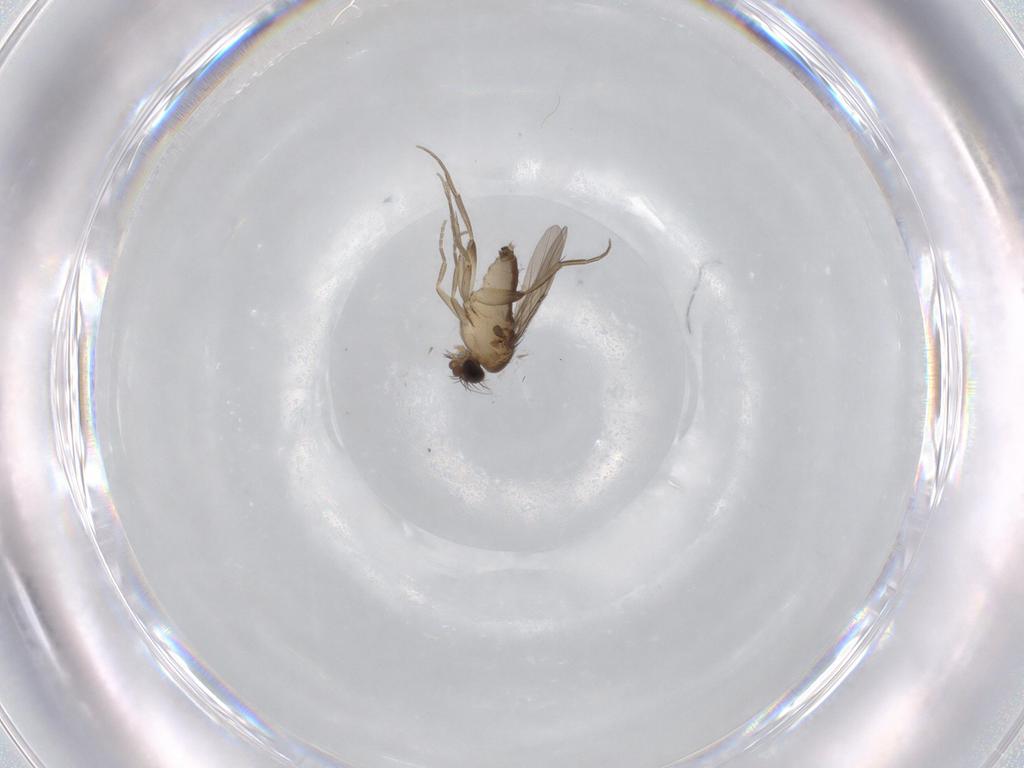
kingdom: Animalia
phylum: Arthropoda
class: Insecta
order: Diptera
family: Phoridae
